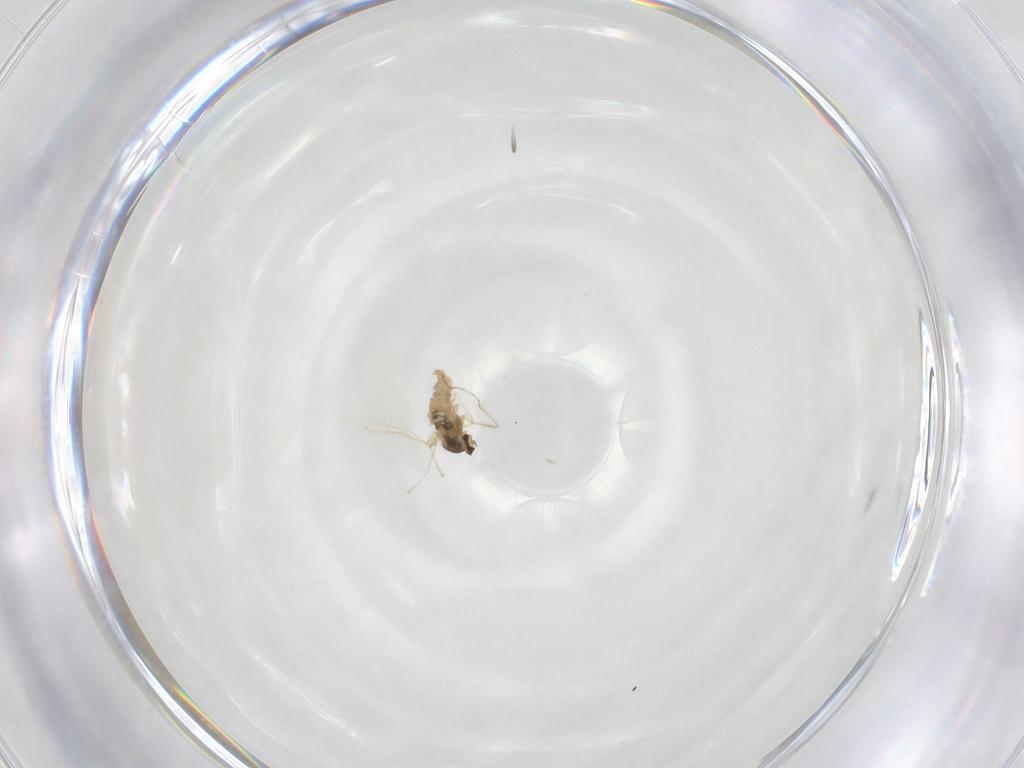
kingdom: Animalia
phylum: Arthropoda
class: Insecta
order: Diptera
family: Cecidomyiidae
